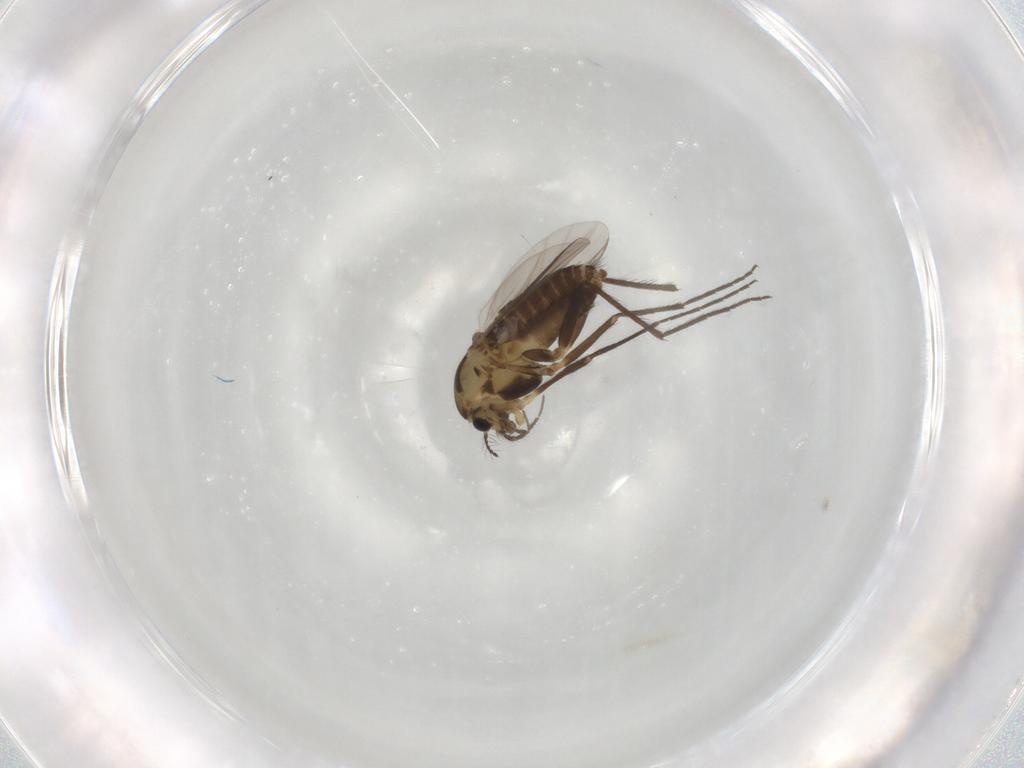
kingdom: Animalia
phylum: Arthropoda
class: Insecta
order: Diptera
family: Chironomidae
